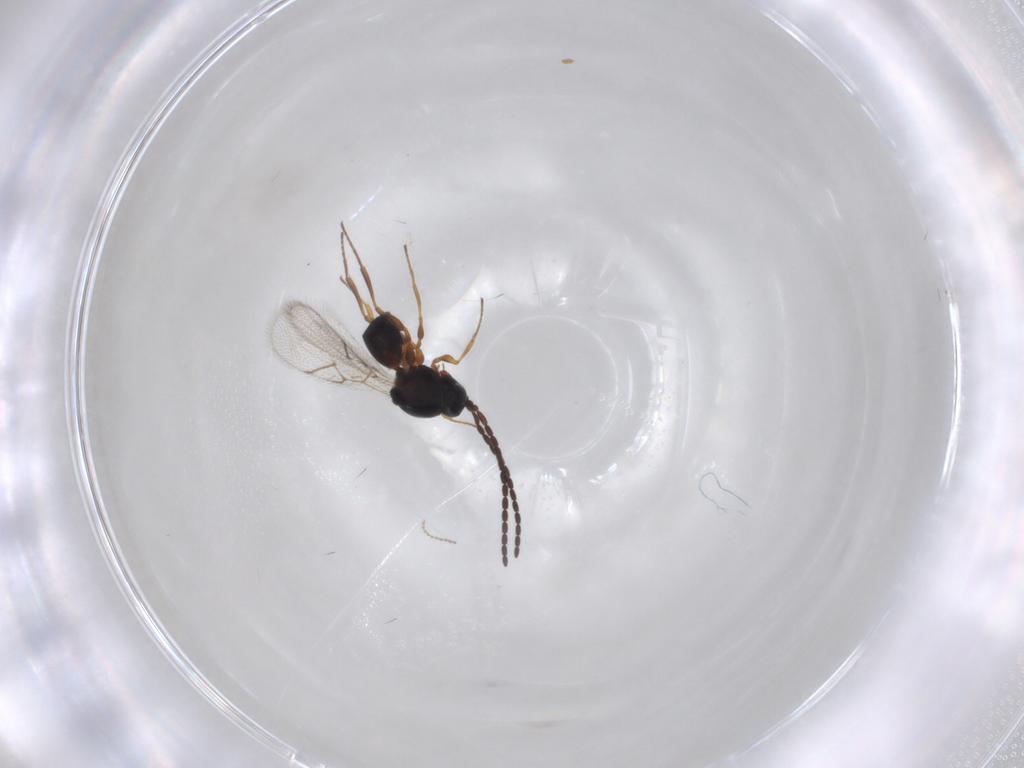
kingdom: Animalia
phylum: Arthropoda
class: Insecta
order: Hymenoptera
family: Figitidae
